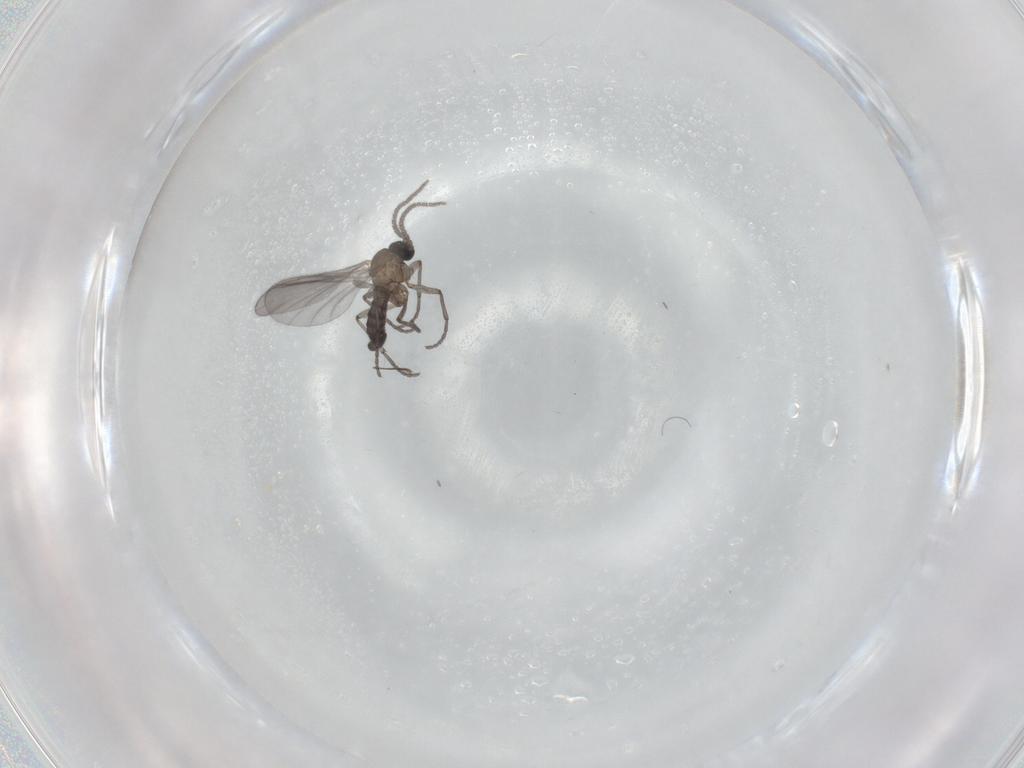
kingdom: Animalia
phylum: Arthropoda
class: Insecta
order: Diptera
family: Sciaridae
